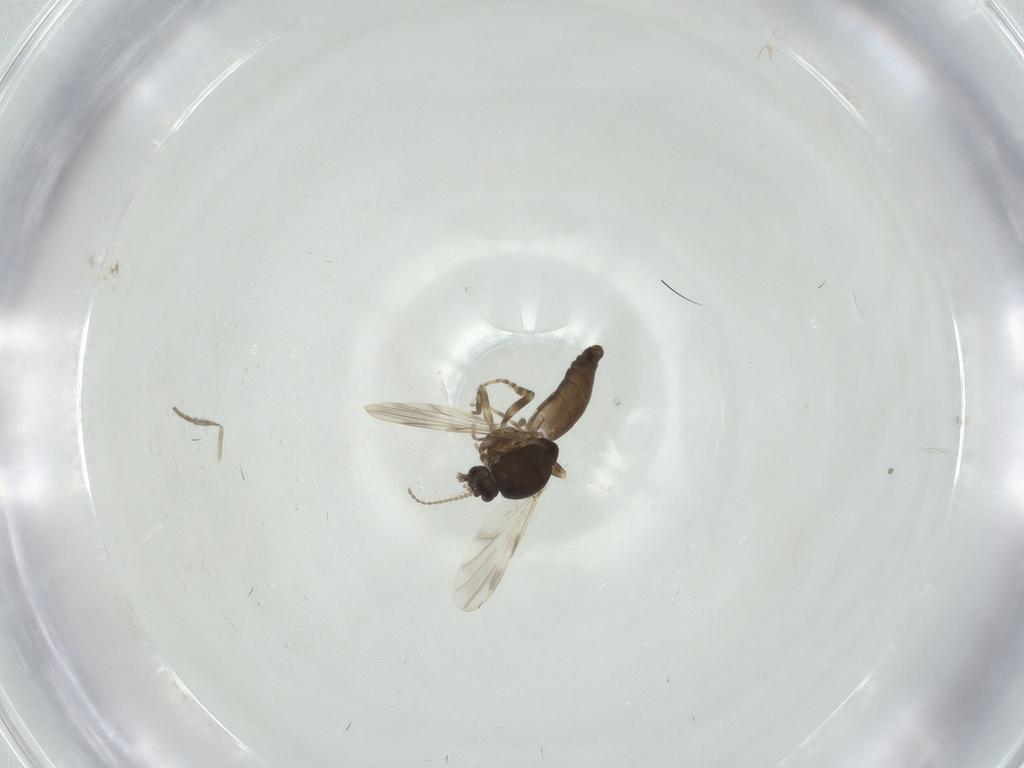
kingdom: Animalia
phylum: Arthropoda
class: Insecta
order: Diptera
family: Ceratopogonidae
